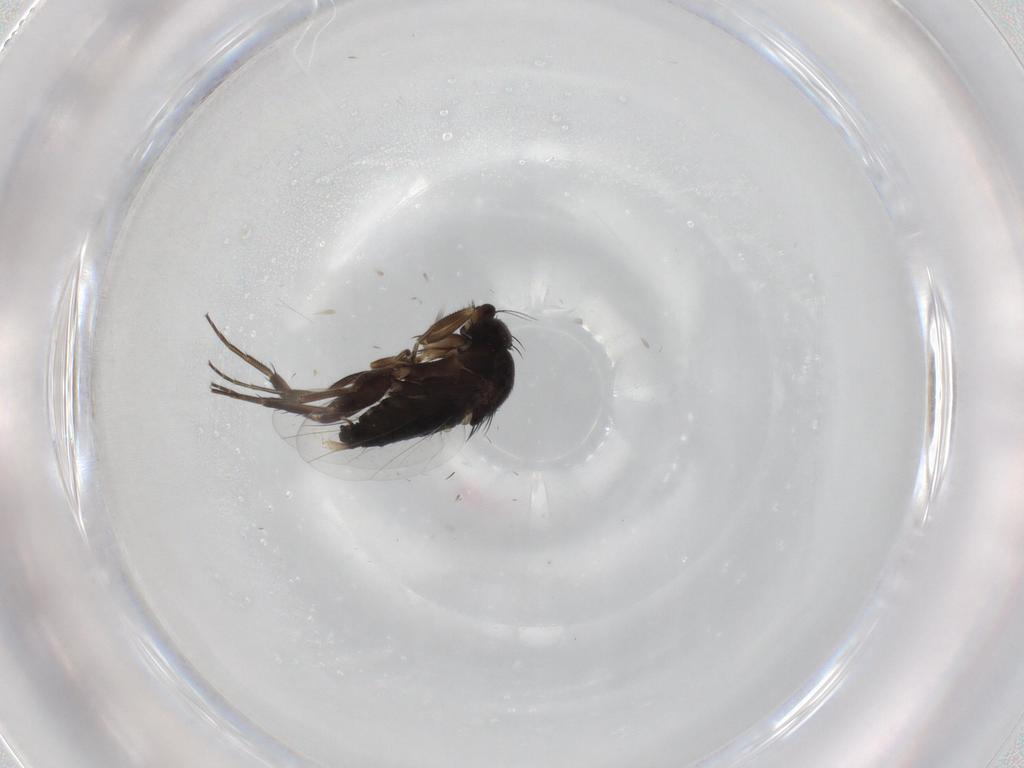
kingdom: Animalia
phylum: Arthropoda
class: Insecta
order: Diptera
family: Phoridae
